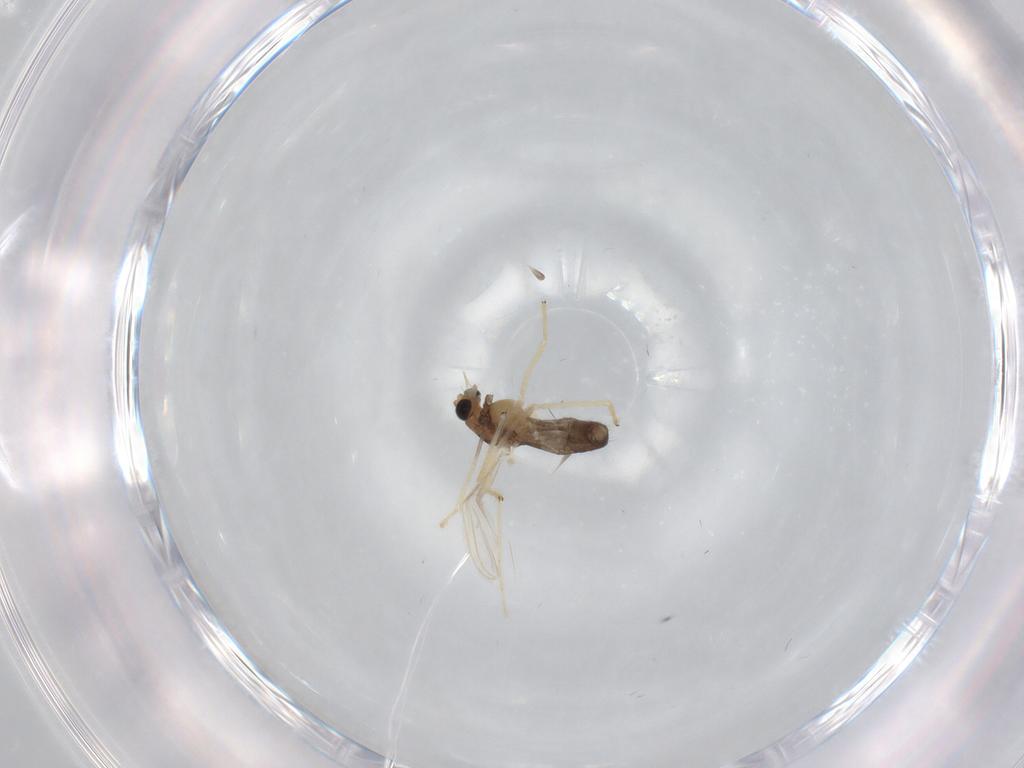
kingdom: Animalia
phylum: Arthropoda
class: Insecta
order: Diptera
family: Chironomidae
